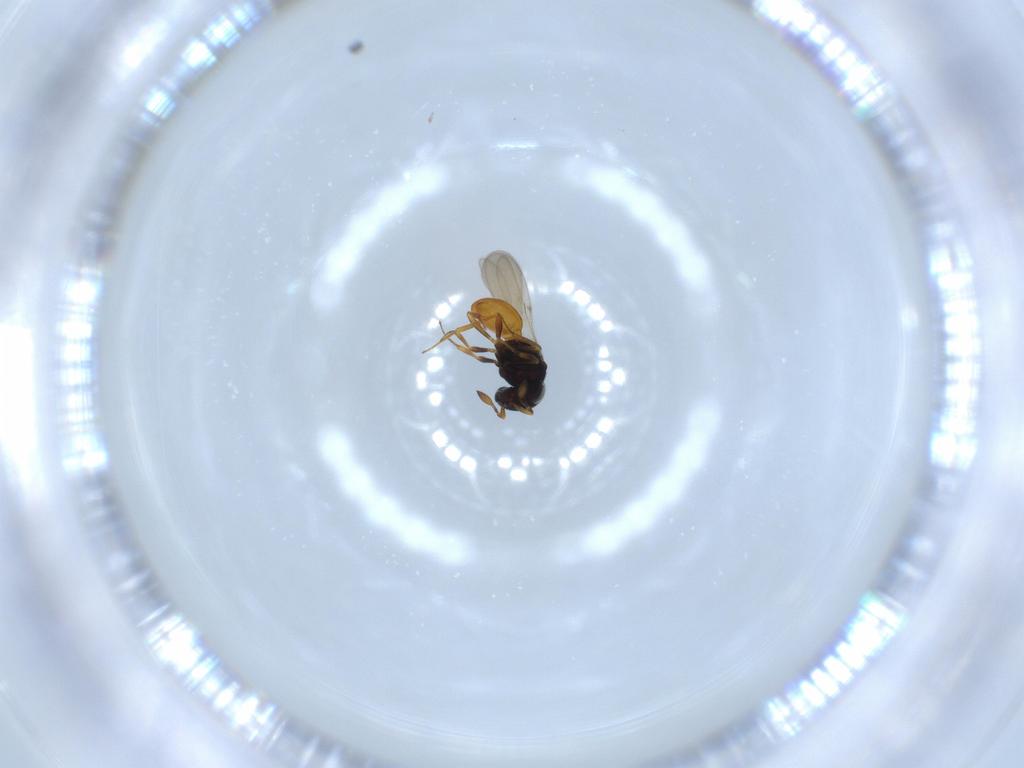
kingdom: Animalia
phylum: Arthropoda
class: Insecta
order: Hymenoptera
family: Scelionidae
